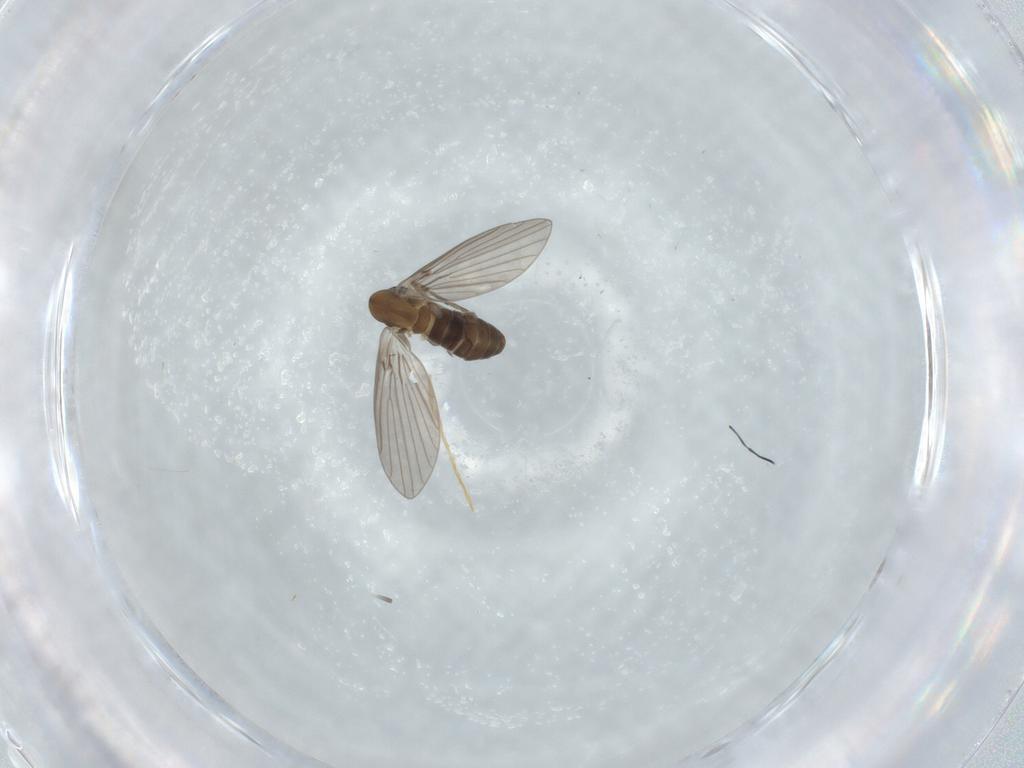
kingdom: Animalia
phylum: Arthropoda
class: Insecta
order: Diptera
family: Psychodidae
